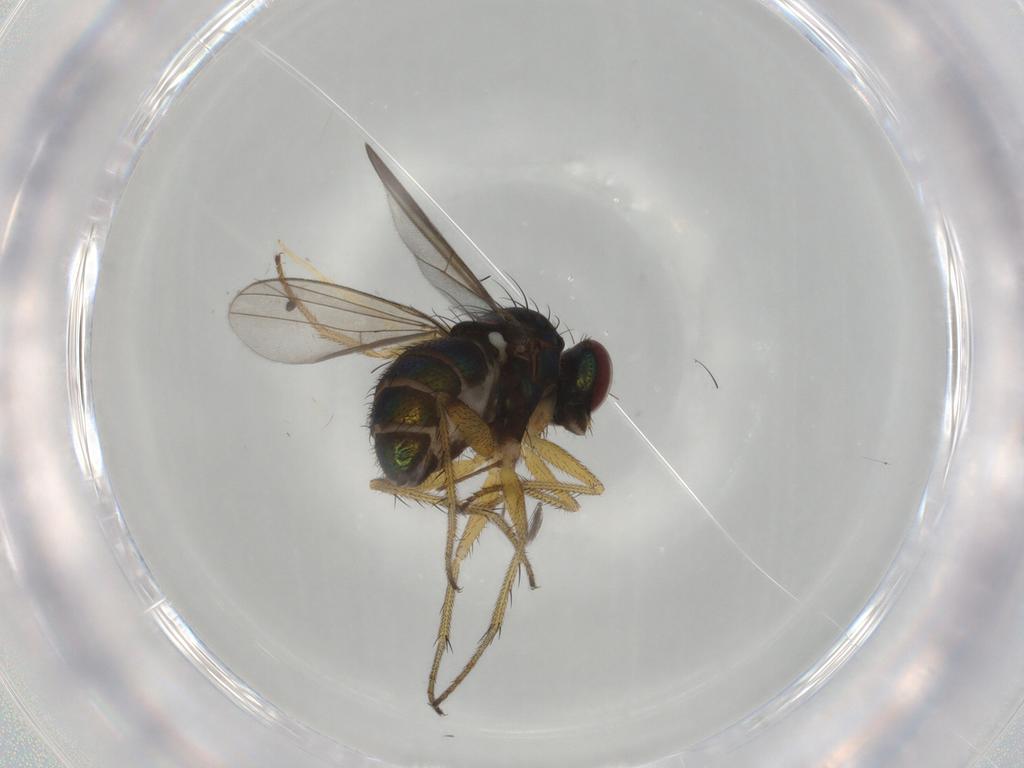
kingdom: Animalia
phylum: Arthropoda
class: Insecta
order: Diptera
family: Dolichopodidae
